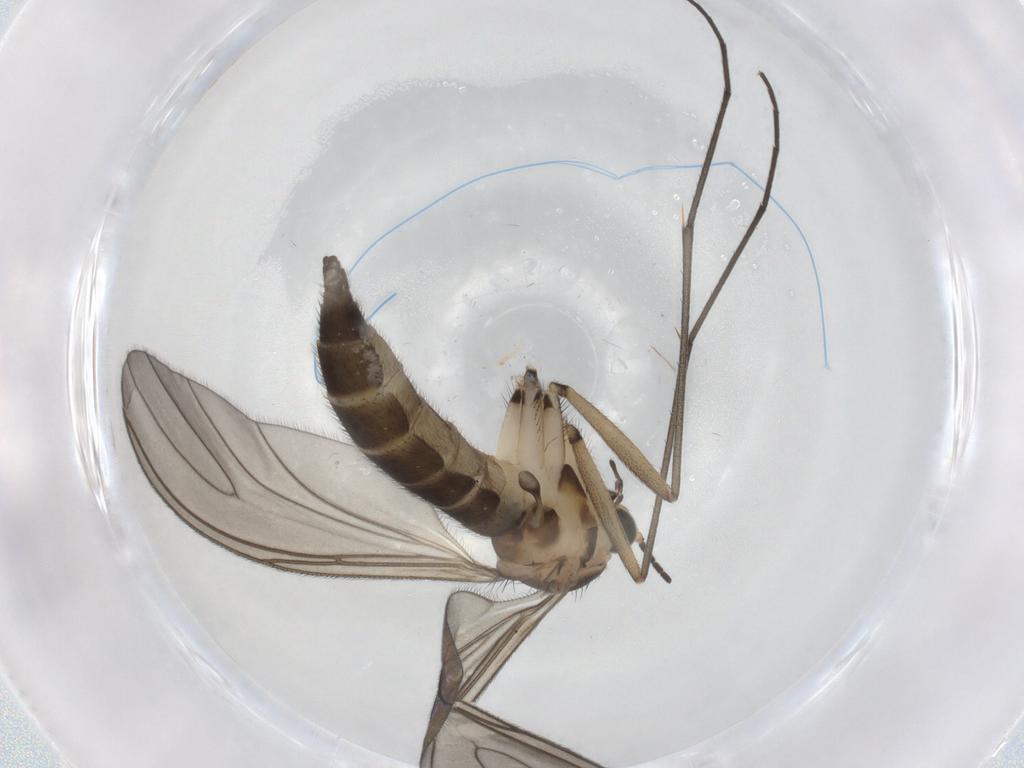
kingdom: Animalia
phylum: Arthropoda
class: Insecta
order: Diptera
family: Sciaridae
